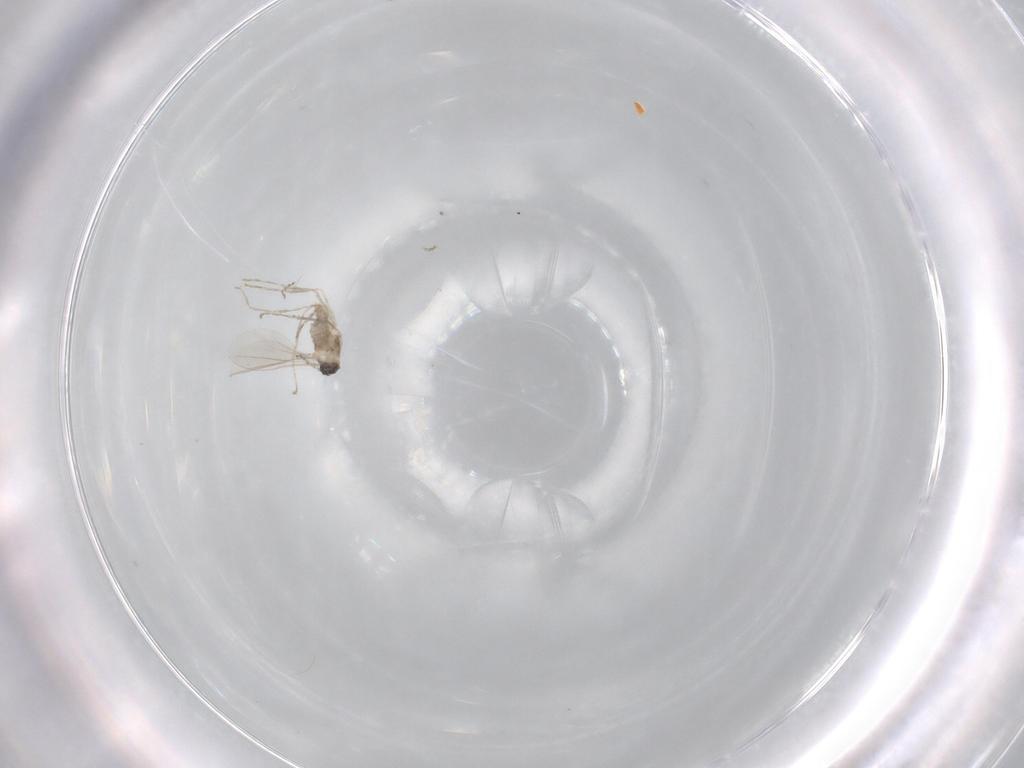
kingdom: Animalia
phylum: Arthropoda
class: Insecta
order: Diptera
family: Cecidomyiidae
